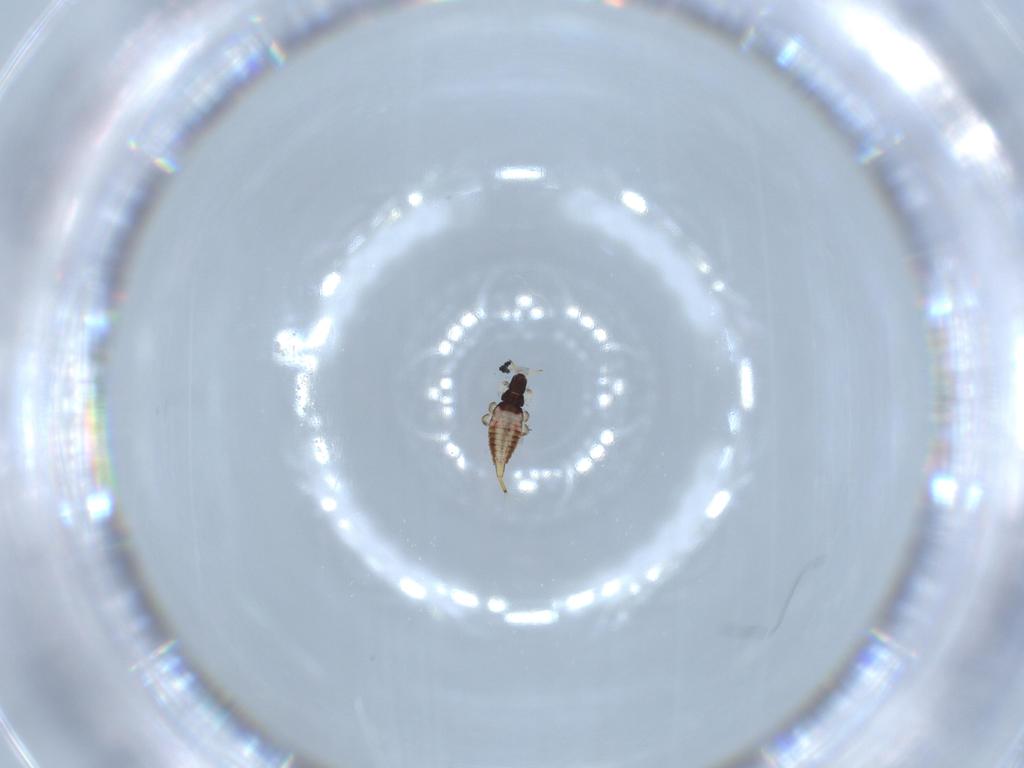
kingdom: Animalia
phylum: Arthropoda
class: Insecta
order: Thysanoptera
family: Phlaeothripidae
